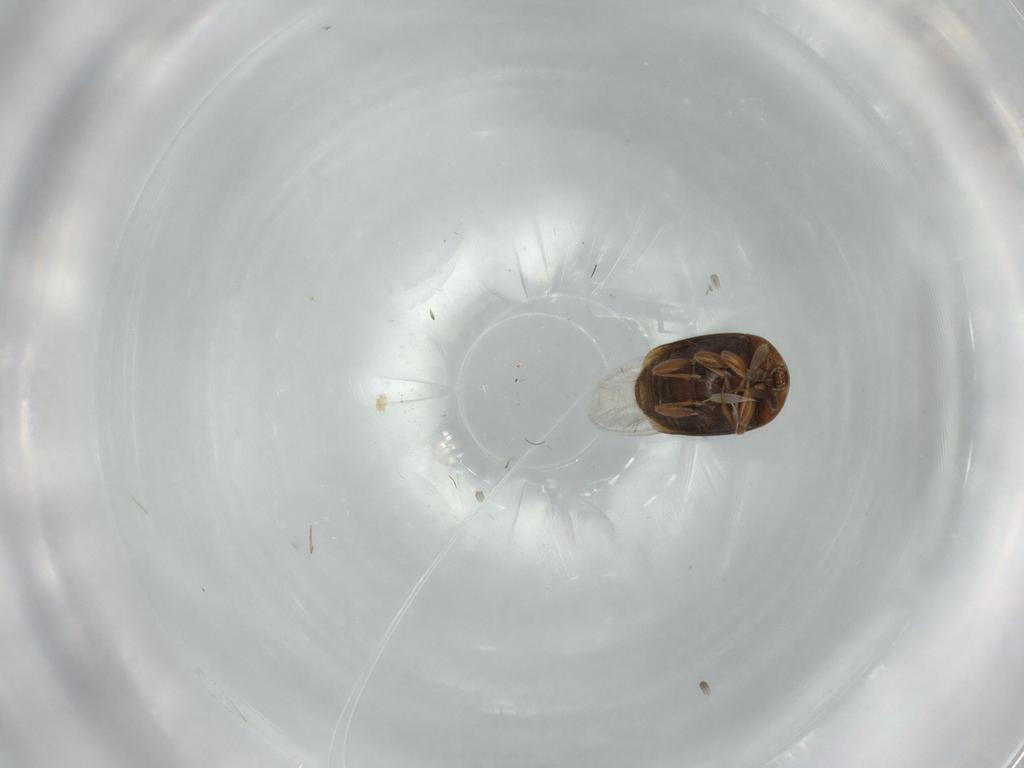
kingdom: Animalia
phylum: Arthropoda
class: Insecta
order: Coleoptera
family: Corylophidae
